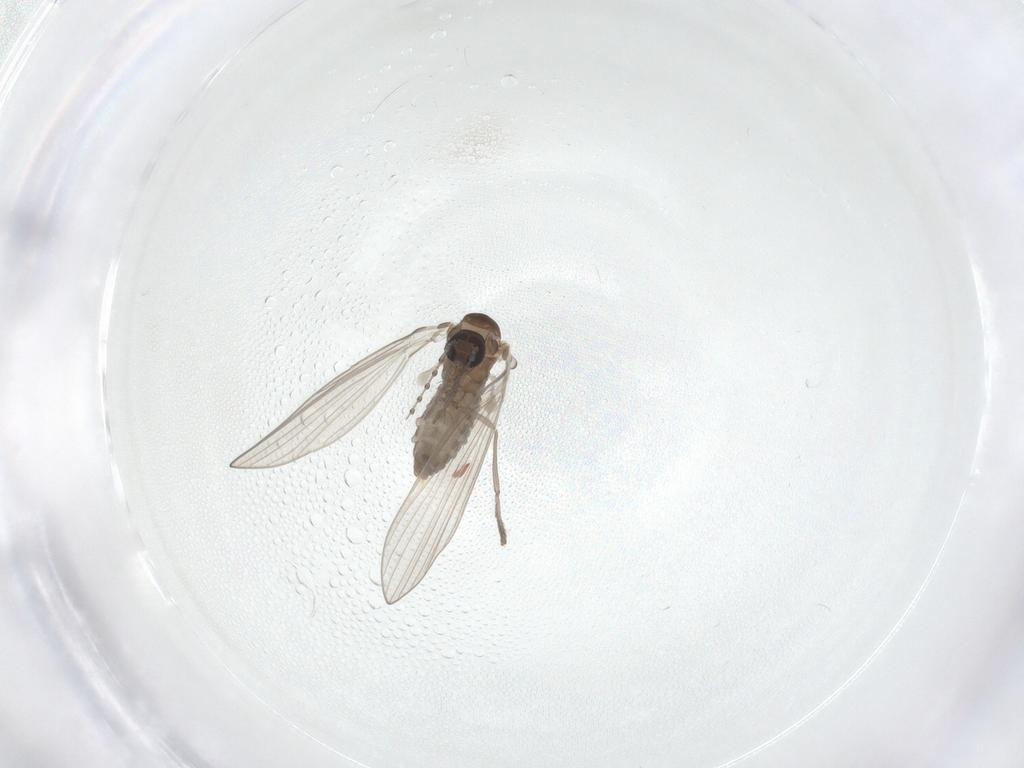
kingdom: Animalia
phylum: Arthropoda
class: Insecta
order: Diptera
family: Psychodidae
